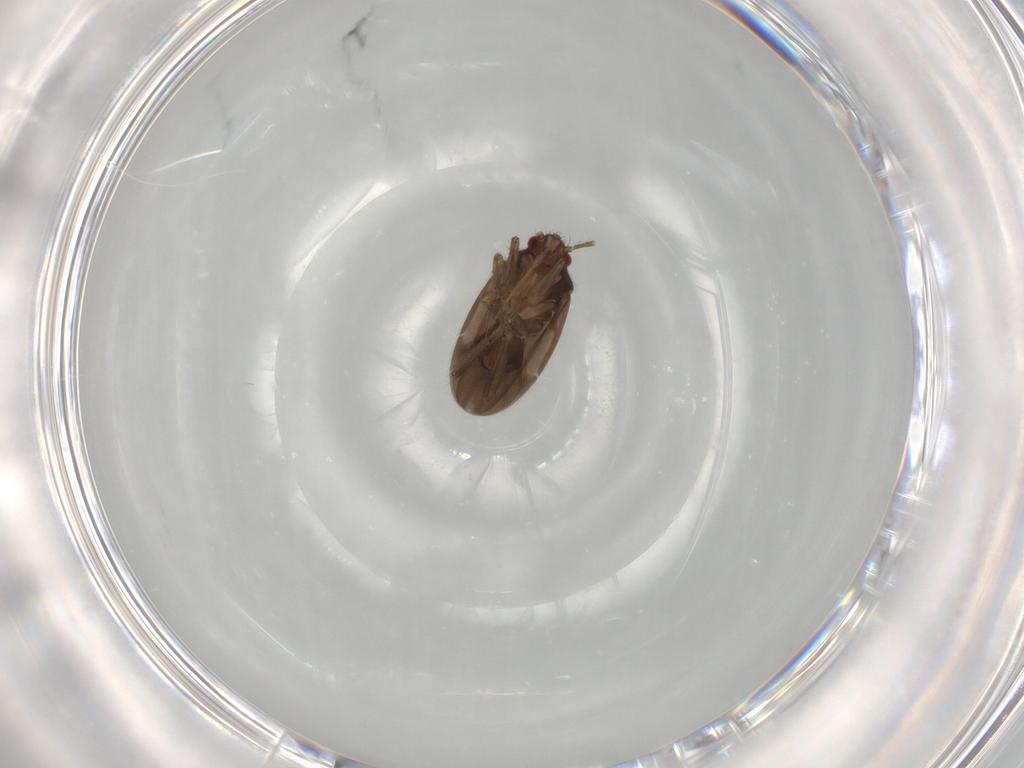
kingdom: Animalia
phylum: Arthropoda
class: Insecta
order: Hemiptera
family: Ceratocombidae
